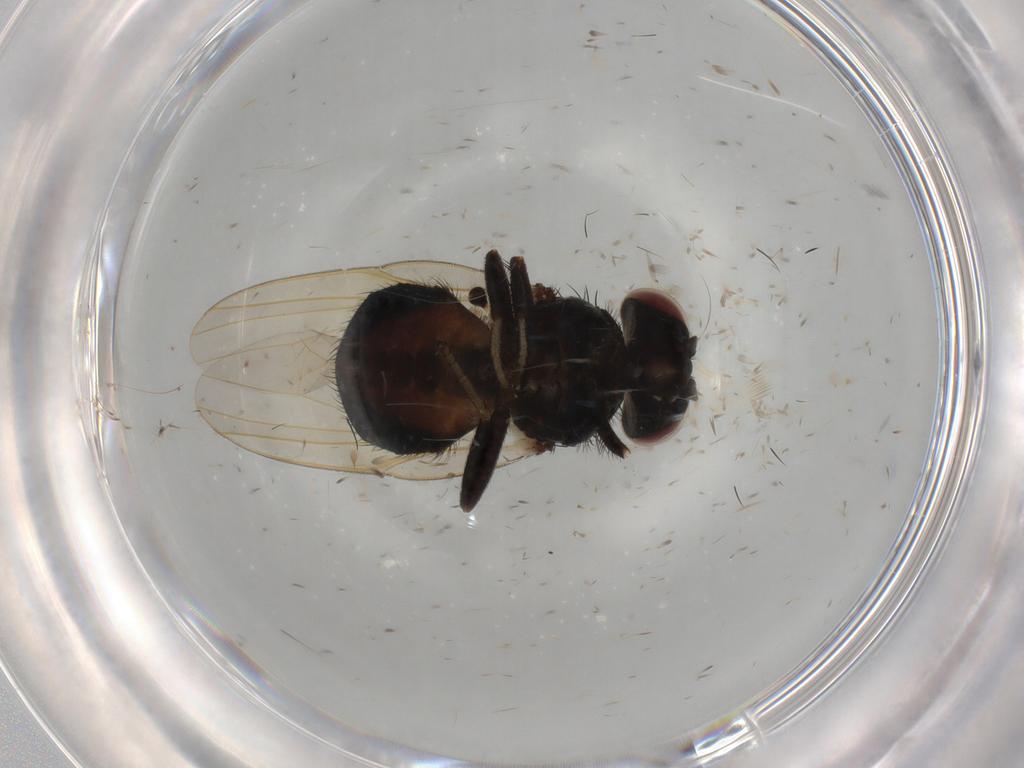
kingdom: Animalia
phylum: Arthropoda
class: Insecta
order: Diptera
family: Lonchaeidae
